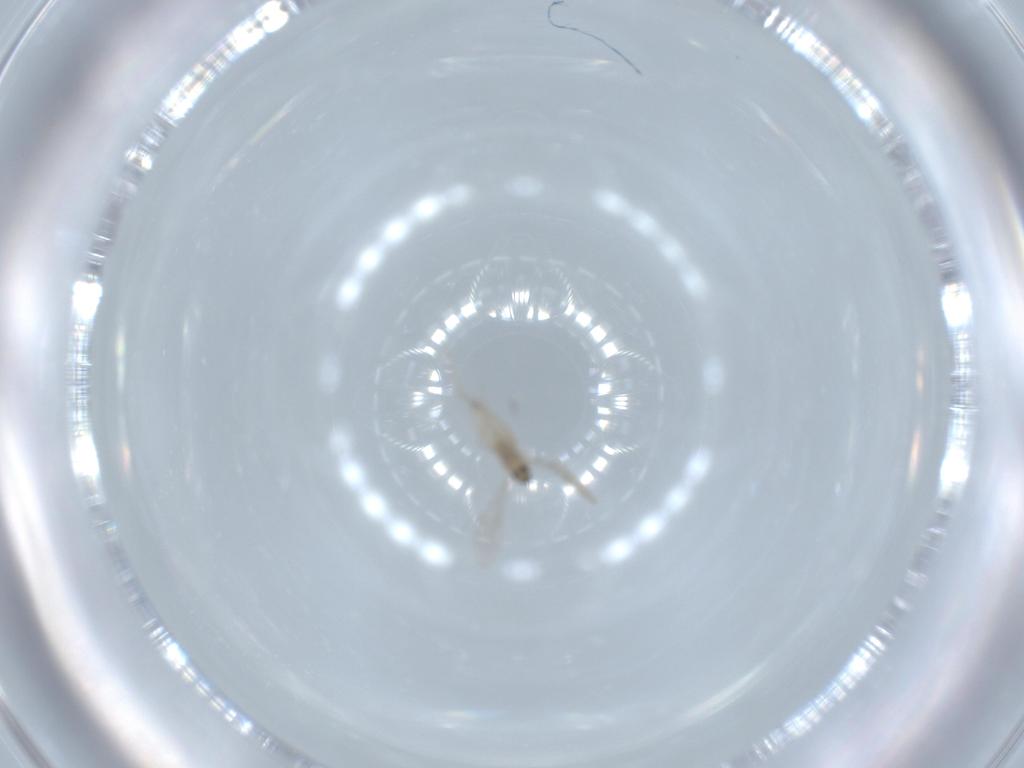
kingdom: Animalia
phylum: Arthropoda
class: Insecta
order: Diptera
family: Cecidomyiidae
